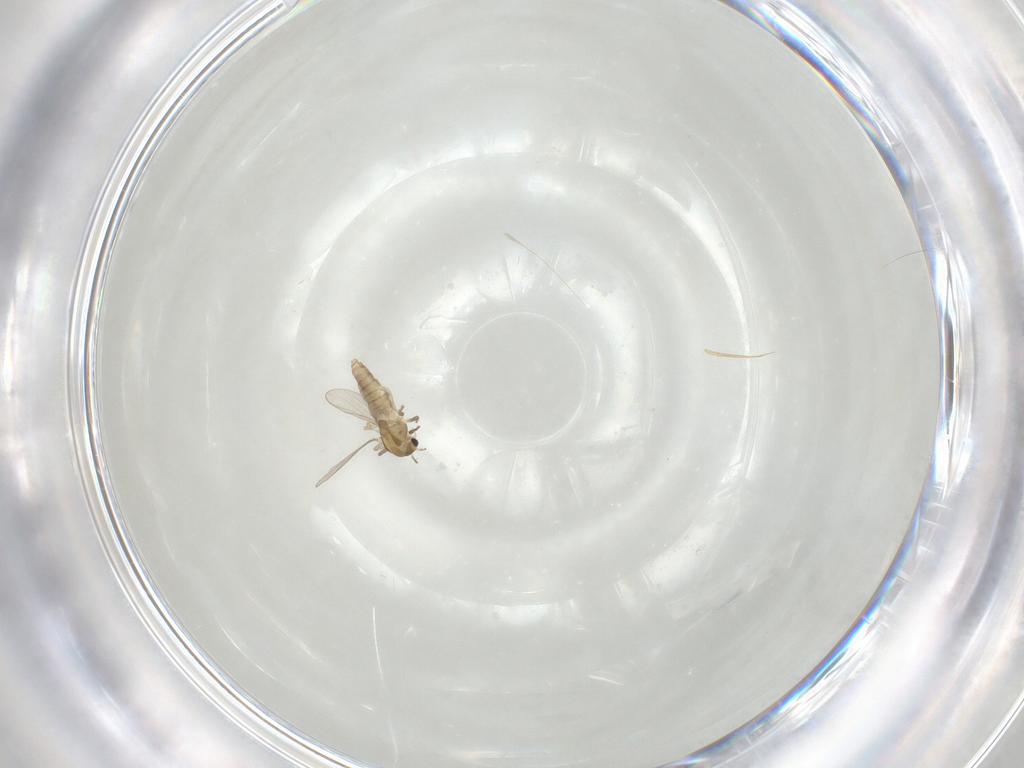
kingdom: Animalia
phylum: Arthropoda
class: Insecta
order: Diptera
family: Chironomidae
